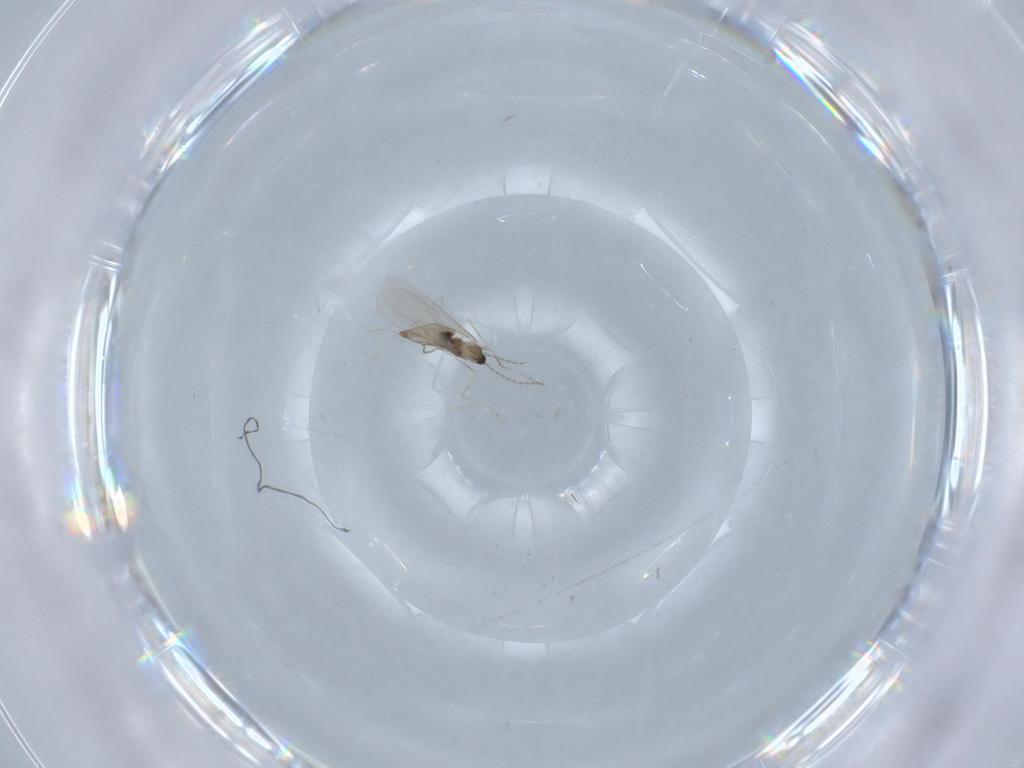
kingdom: Animalia
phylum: Arthropoda
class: Insecta
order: Diptera
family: Cecidomyiidae
